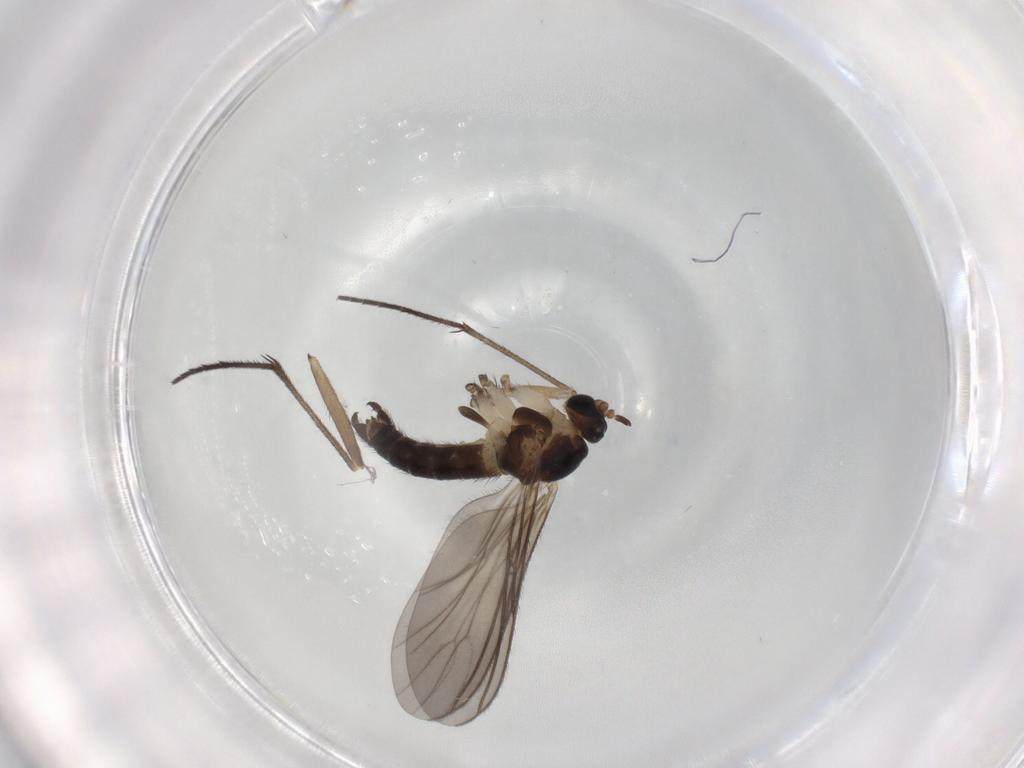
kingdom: Animalia
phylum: Arthropoda
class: Insecta
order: Diptera
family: Sciaridae
